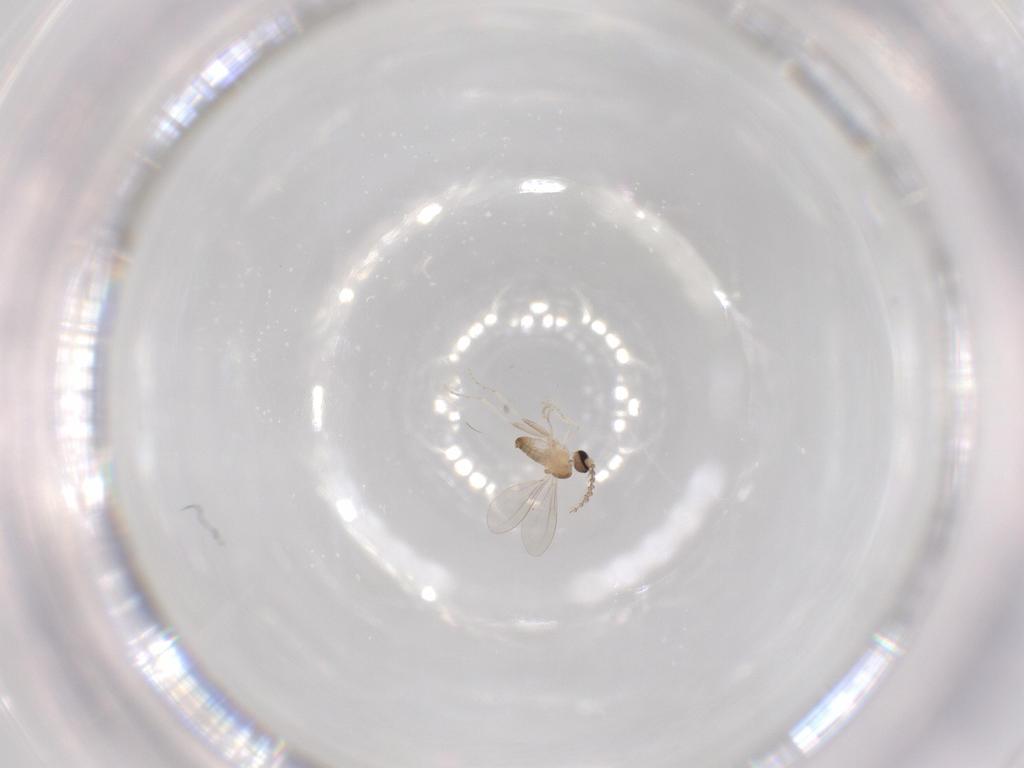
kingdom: Animalia
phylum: Arthropoda
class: Insecta
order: Diptera
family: Cecidomyiidae
